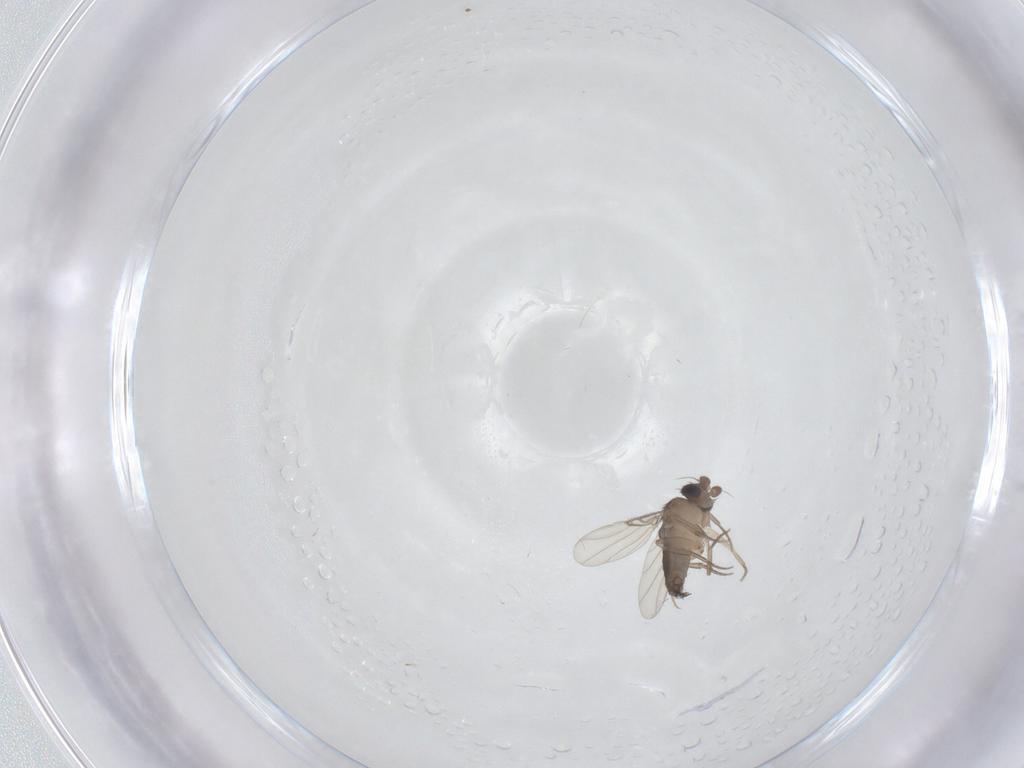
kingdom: Animalia
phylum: Arthropoda
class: Insecta
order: Diptera
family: Phoridae
